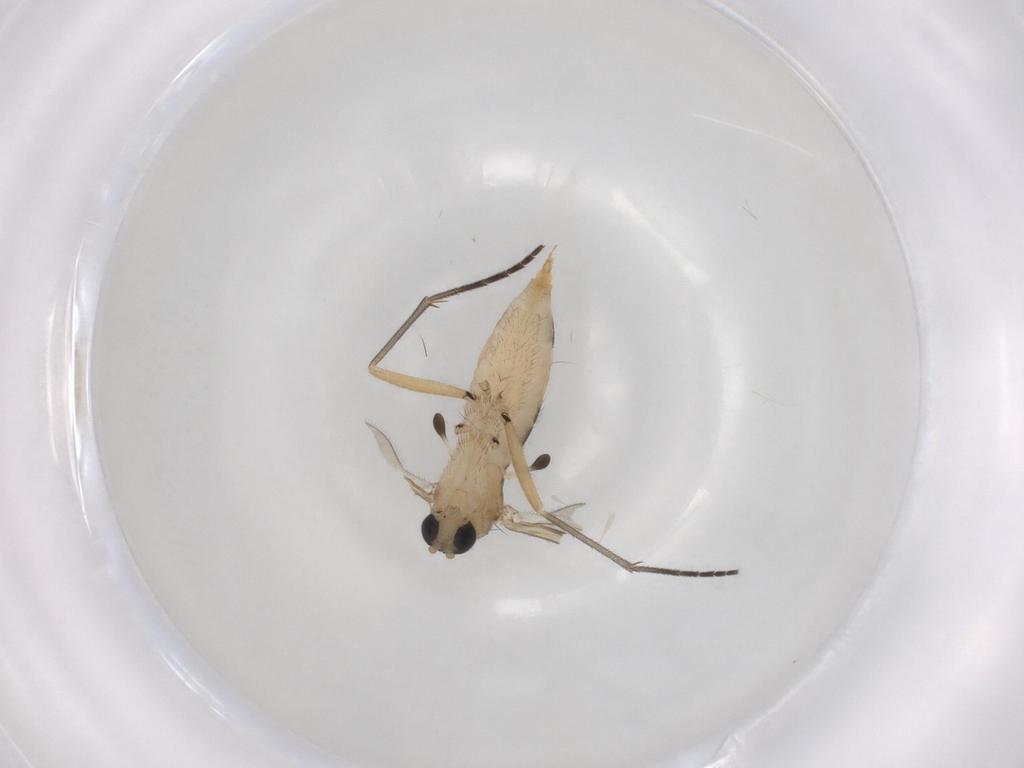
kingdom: Animalia
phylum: Arthropoda
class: Insecta
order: Diptera
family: Sciaridae
